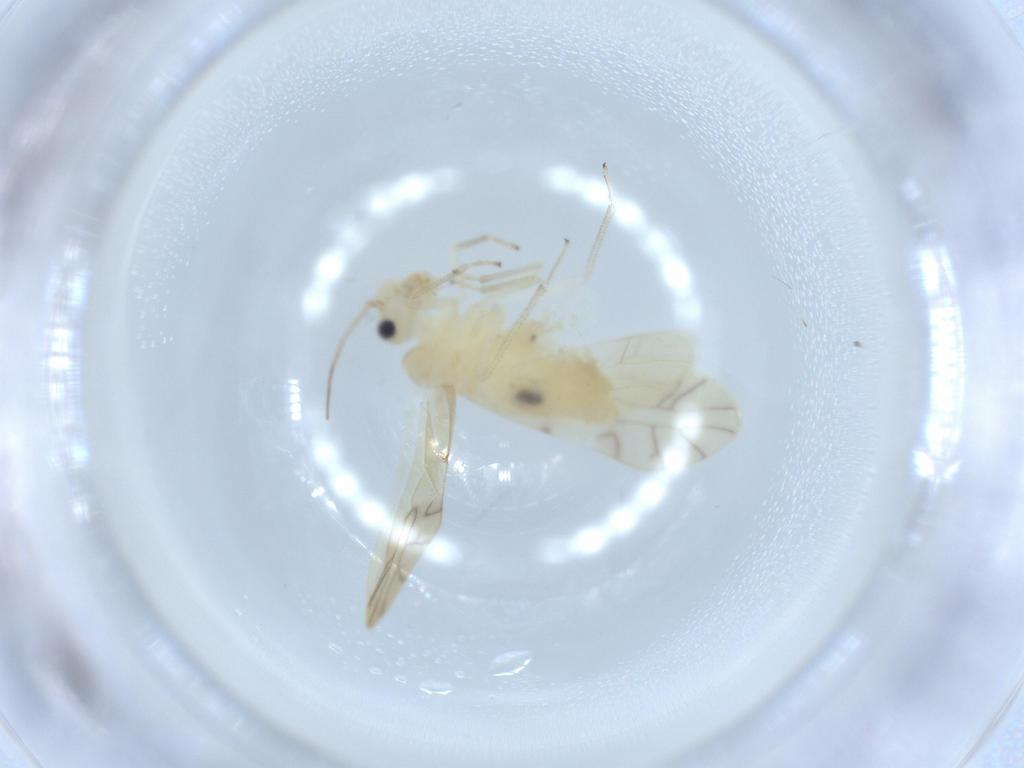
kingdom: Animalia
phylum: Arthropoda
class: Insecta
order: Psocodea
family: Caeciliusidae
